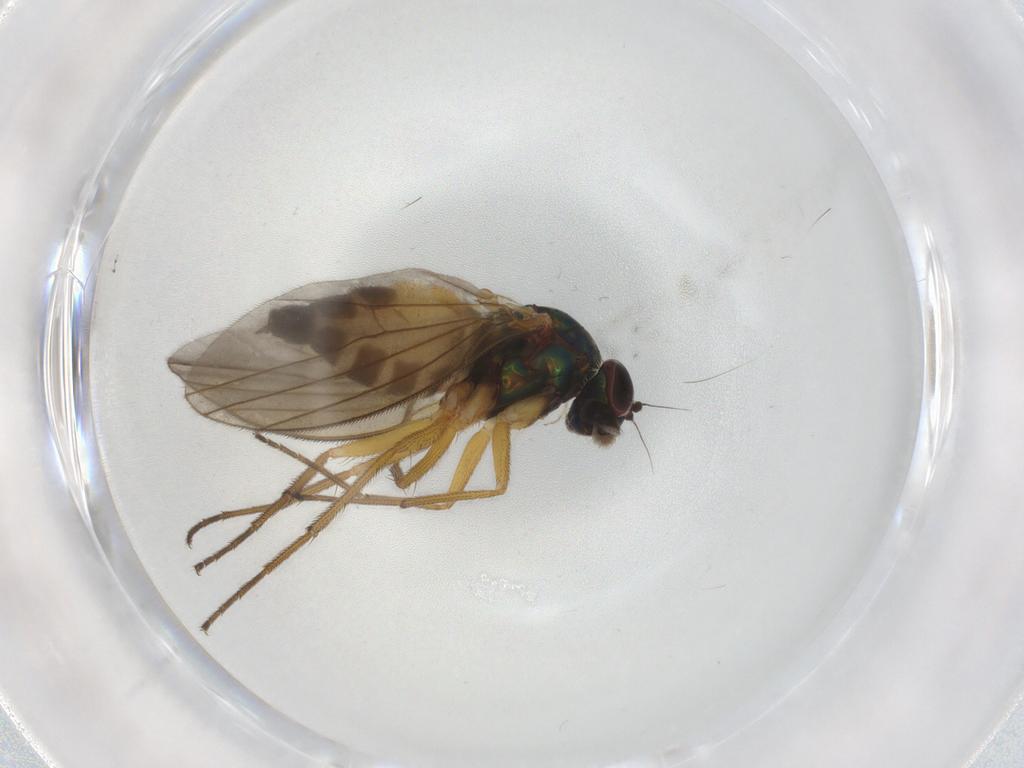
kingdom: Animalia
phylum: Arthropoda
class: Insecta
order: Diptera
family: Dolichopodidae
